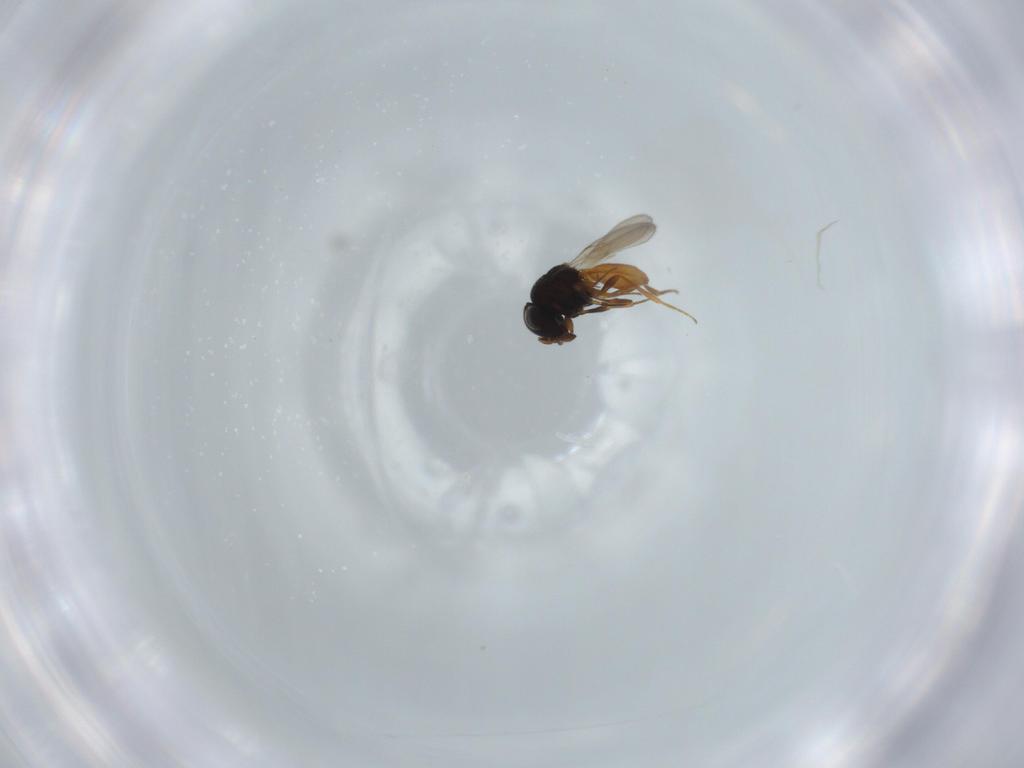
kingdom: Animalia
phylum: Arthropoda
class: Insecta
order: Hymenoptera
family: Scelionidae
